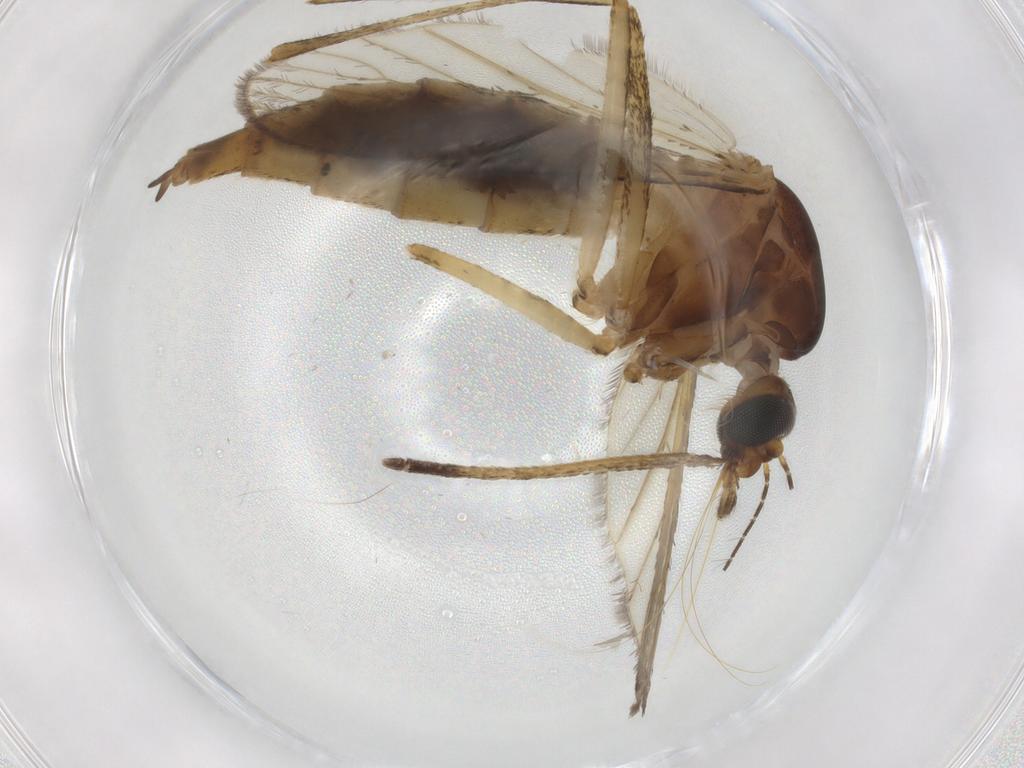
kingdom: Animalia
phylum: Arthropoda
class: Insecta
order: Diptera
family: Culicidae
